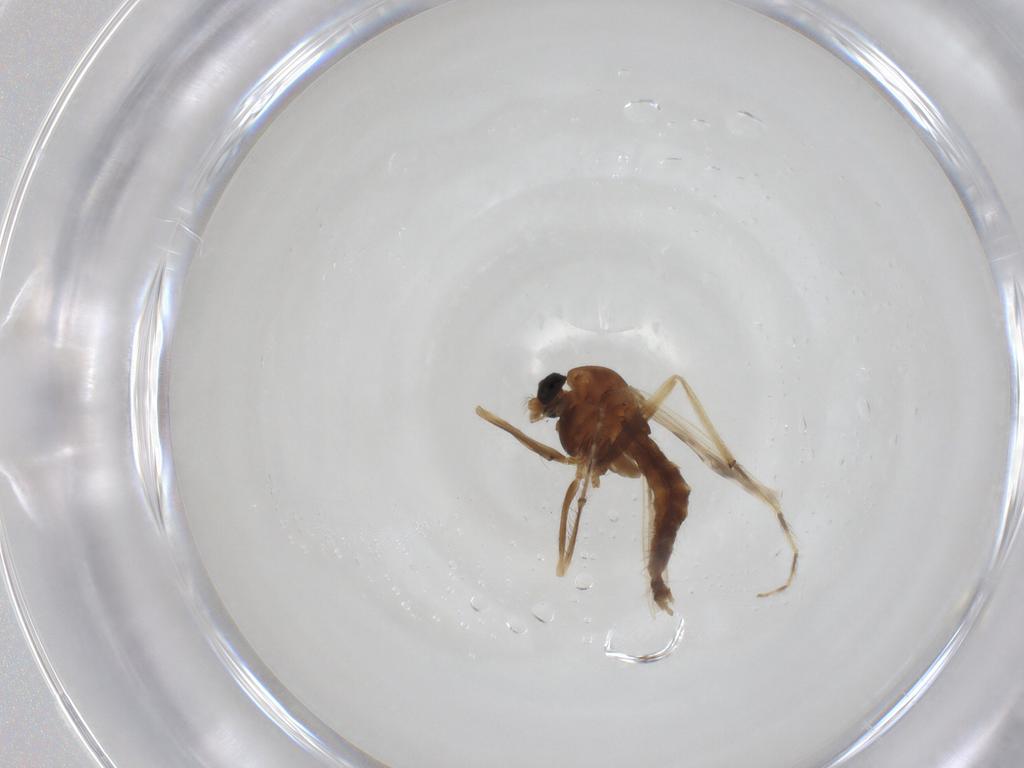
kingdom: Animalia
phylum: Arthropoda
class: Insecta
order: Diptera
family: Chironomidae
